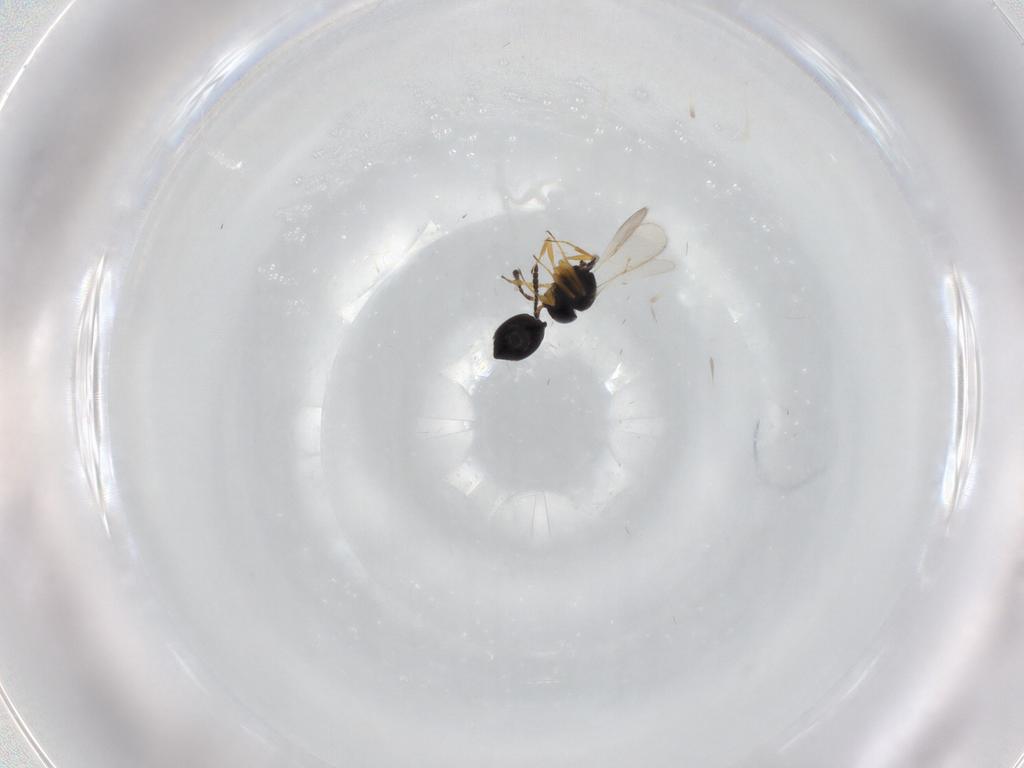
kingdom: Animalia
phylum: Arthropoda
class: Insecta
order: Hymenoptera
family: Scelionidae
